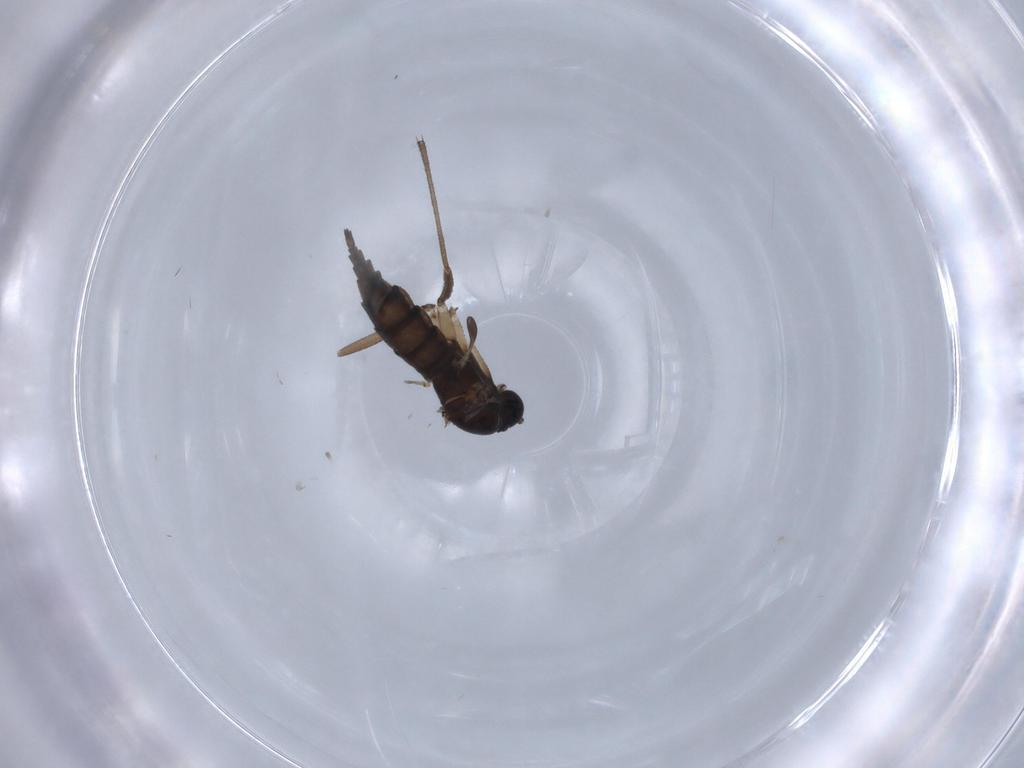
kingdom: Animalia
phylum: Arthropoda
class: Insecta
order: Diptera
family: Sciaridae
